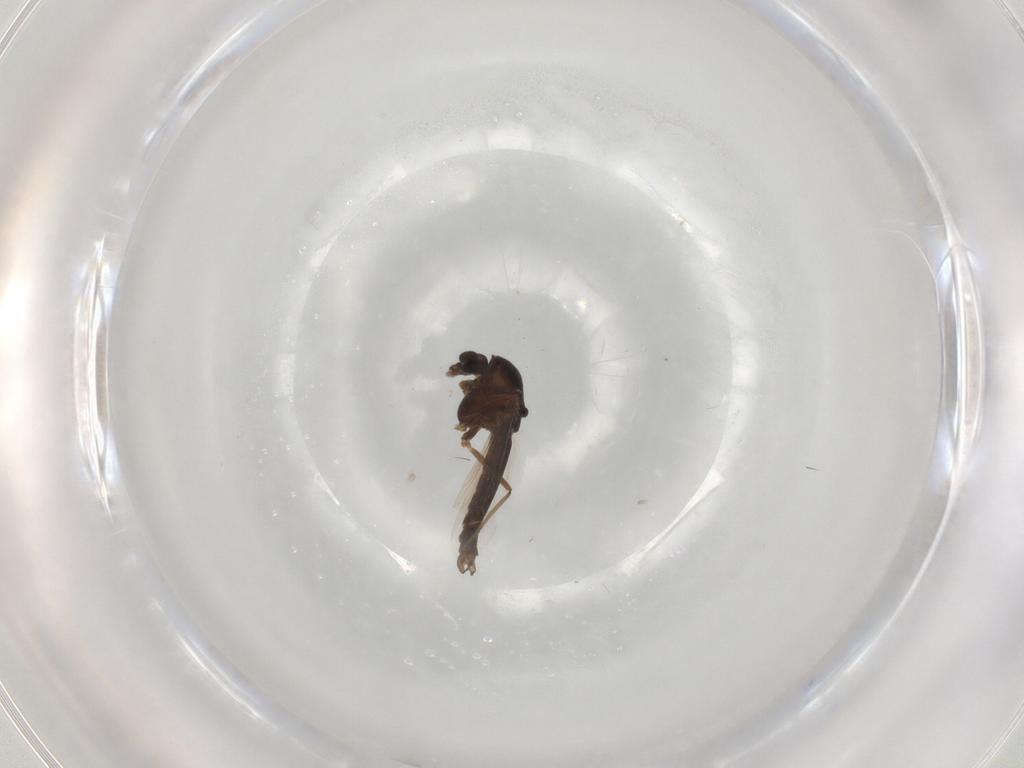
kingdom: Animalia
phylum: Arthropoda
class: Insecta
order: Diptera
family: Chironomidae
